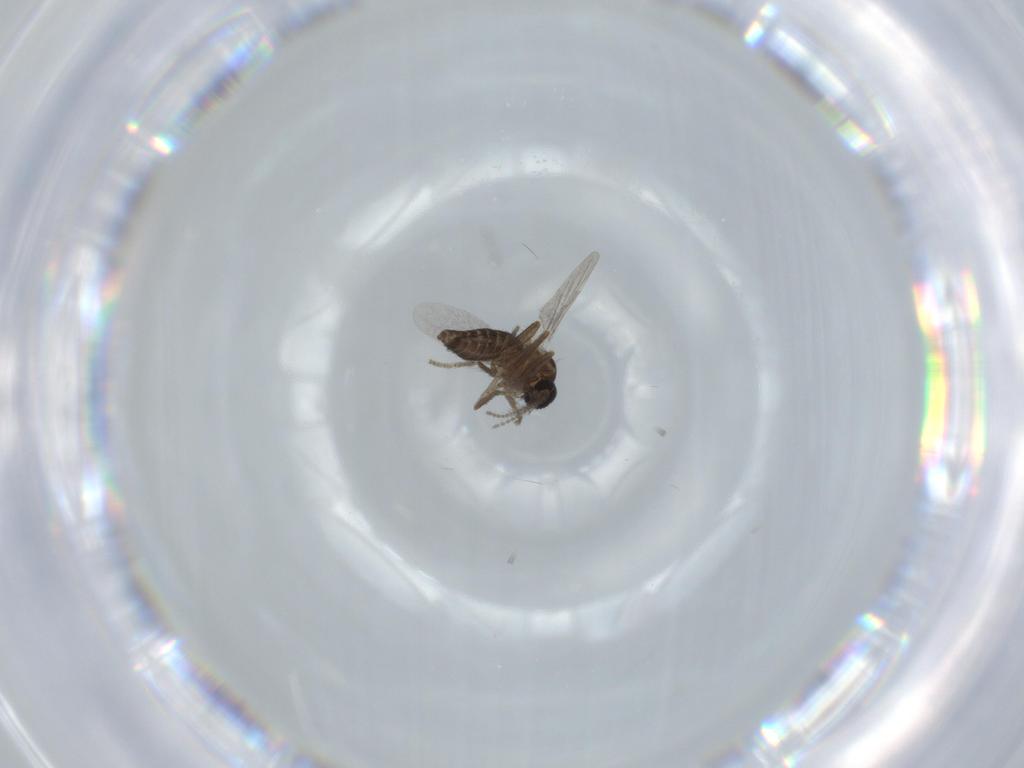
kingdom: Animalia
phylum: Arthropoda
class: Insecta
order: Diptera
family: Ceratopogonidae
